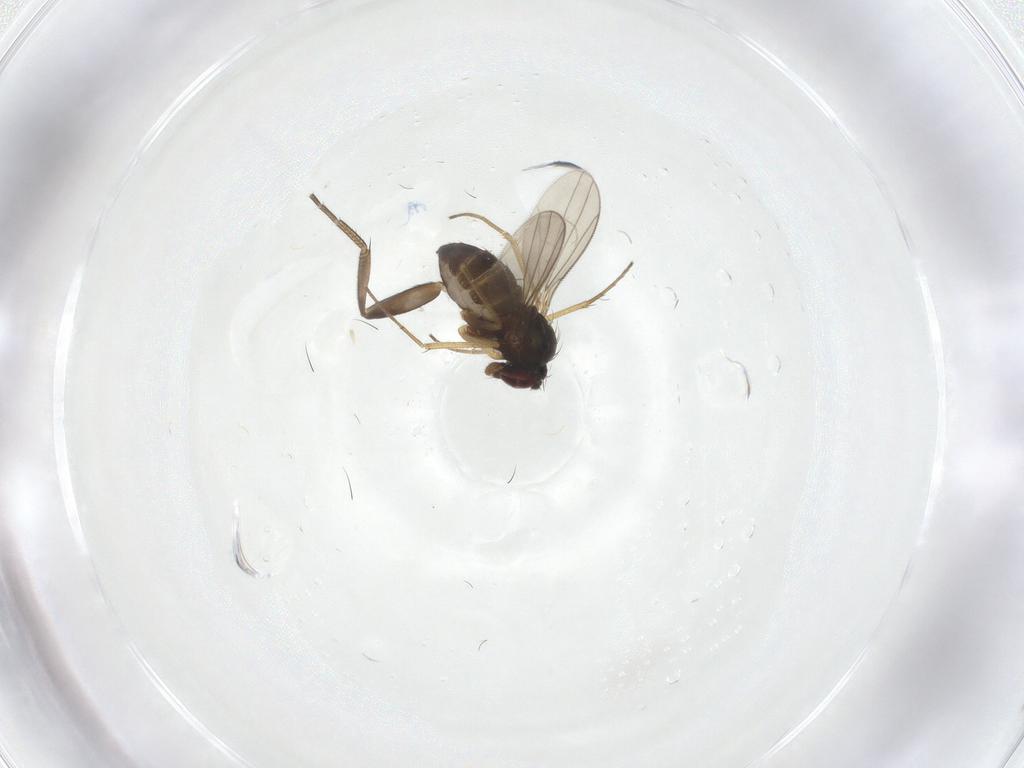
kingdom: Animalia
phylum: Arthropoda
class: Insecta
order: Diptera
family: Dolichopodidae
